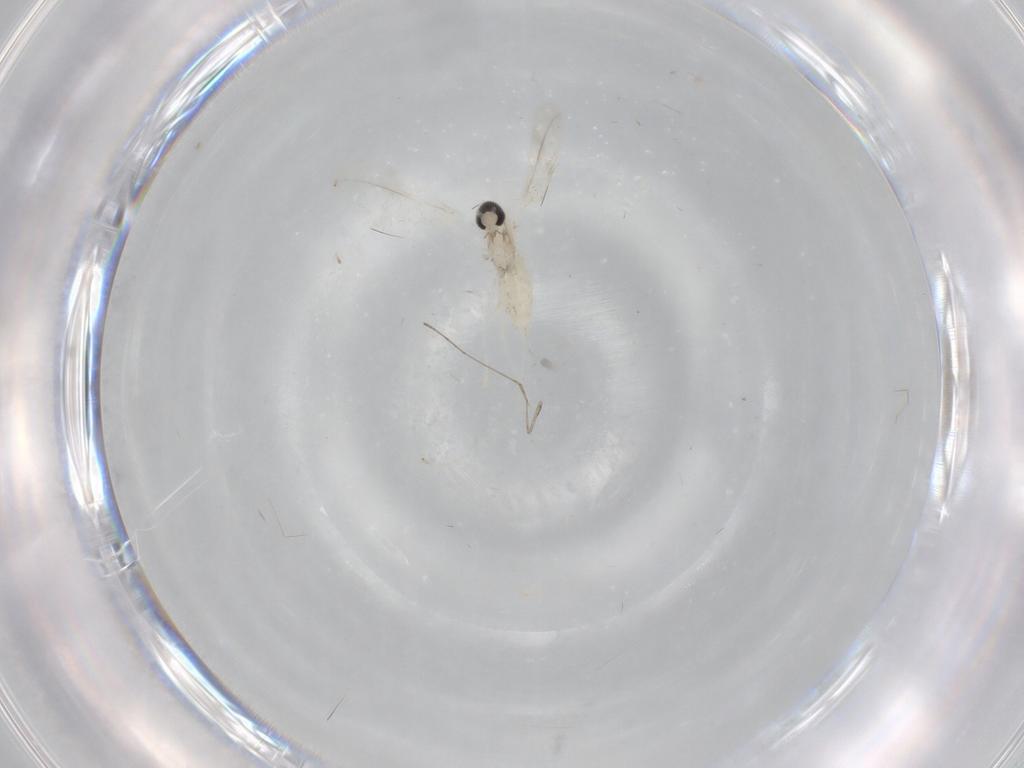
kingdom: Animalia
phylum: Arthropoda
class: Insecta
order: Diptera
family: Cecidomyiidae
